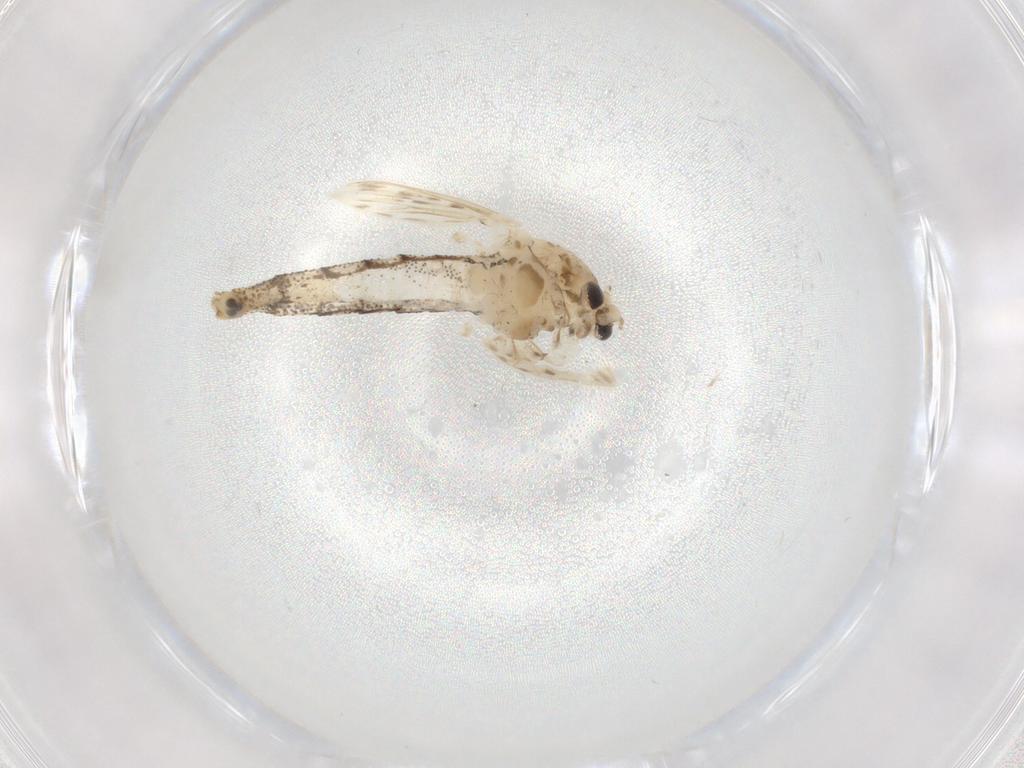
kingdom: Animalia
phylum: Arthropoda
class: Insecta
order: Diptera
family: Chaoboridae
